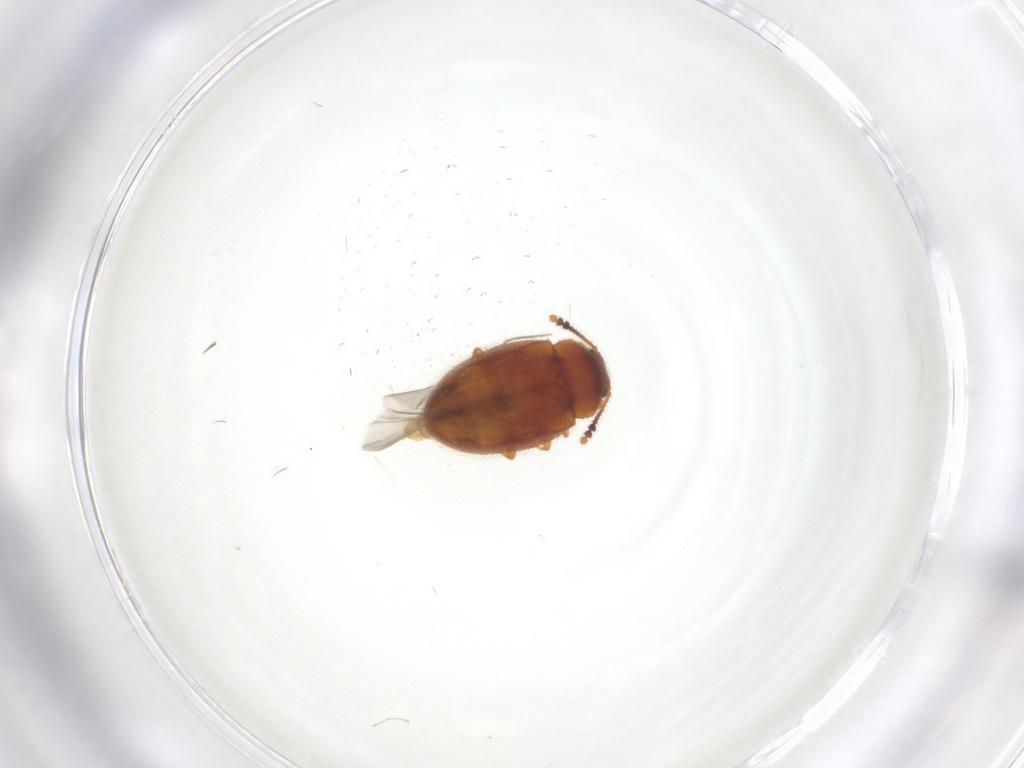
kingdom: Animalia
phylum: Arthropoda
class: Insecta
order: Coleoptera
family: Erotylidae
